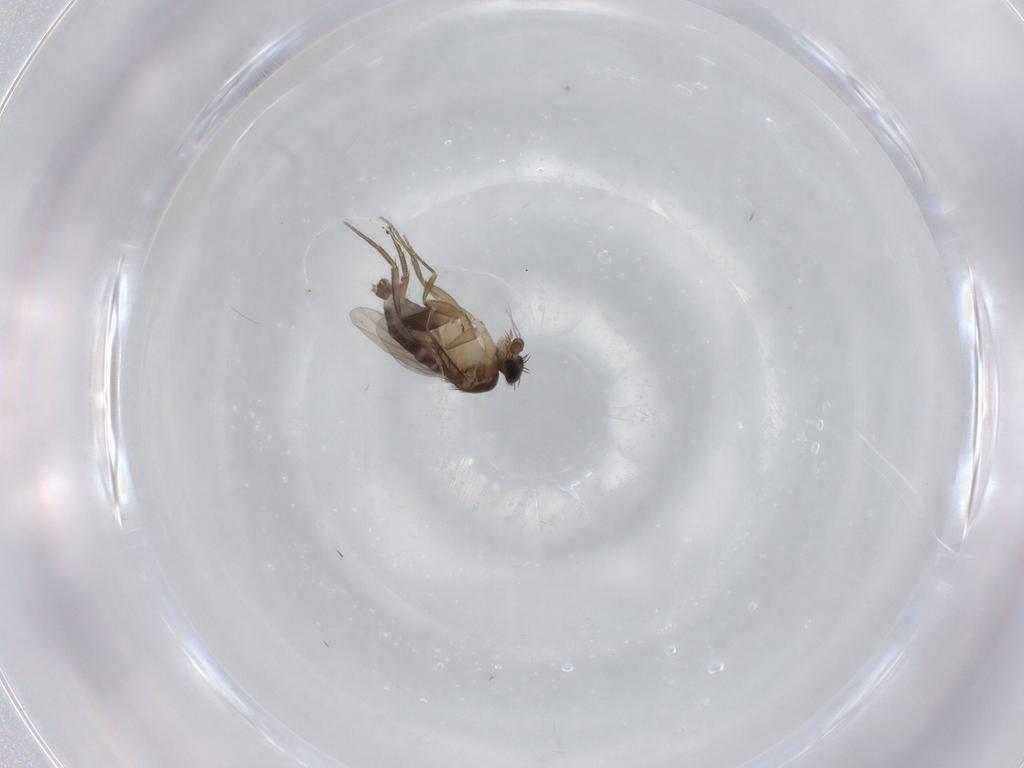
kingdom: Animalia
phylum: Arthropoda
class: Insecta
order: Diptera
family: Phoridae
